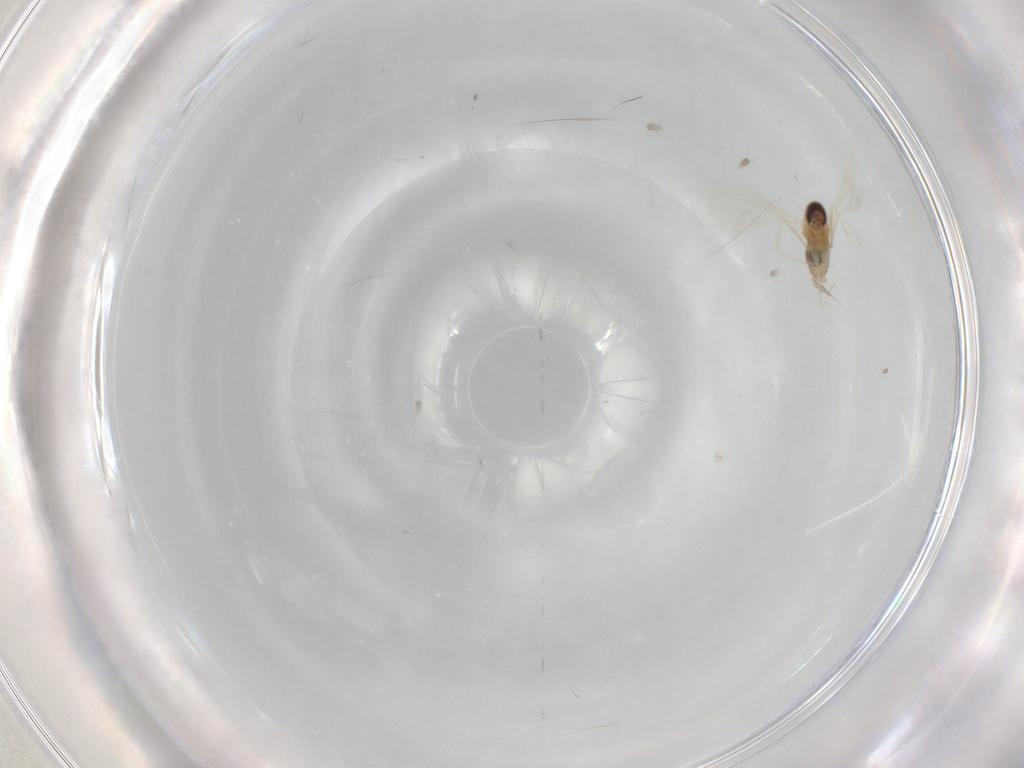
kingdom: Animalia
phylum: Arthropoda
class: Insecta
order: Diptera
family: Cecidomyiidae
